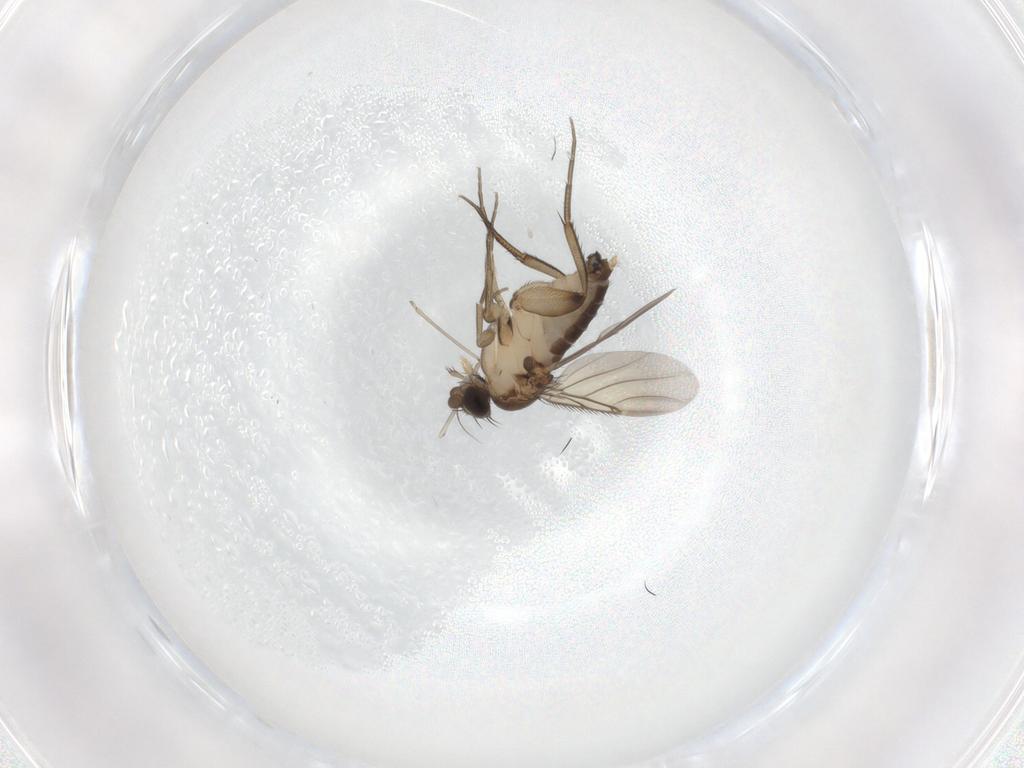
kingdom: Animalia
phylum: Arthropoda
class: Insecta
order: Diptera
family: Phoridae
